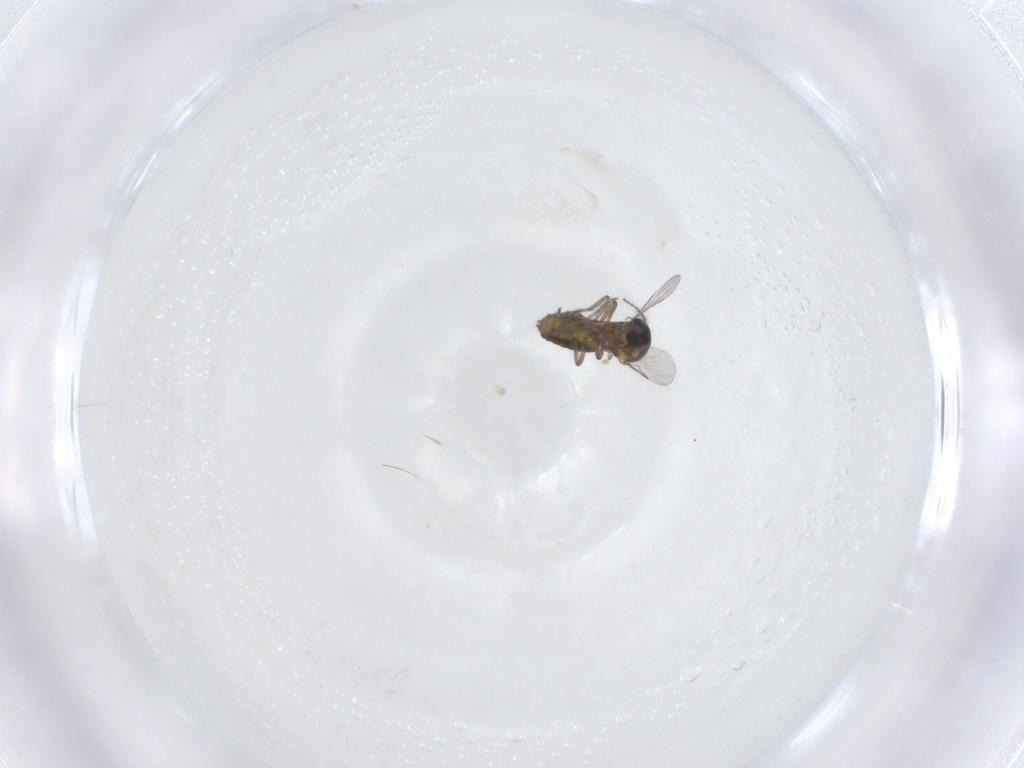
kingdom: Animalia
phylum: Arthropoda
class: Insecta
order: Diptera
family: Ceratopogonidae
